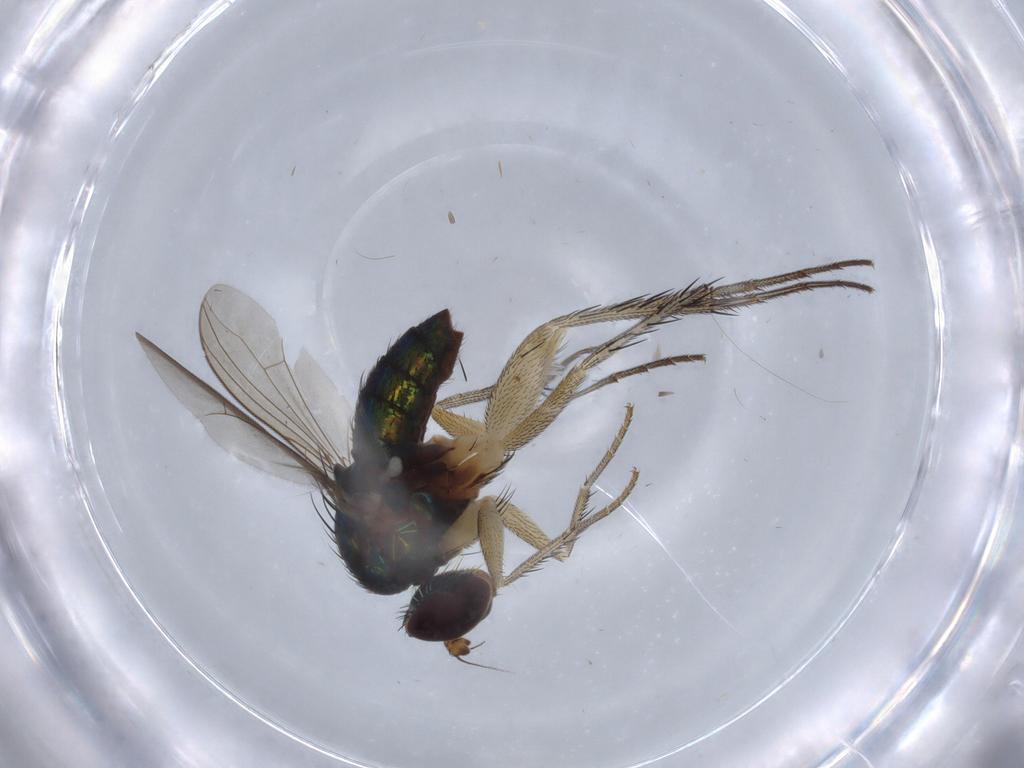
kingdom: Animalia
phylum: Arthropoda
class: Insecta
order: Diptera
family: Dolichopodidae
